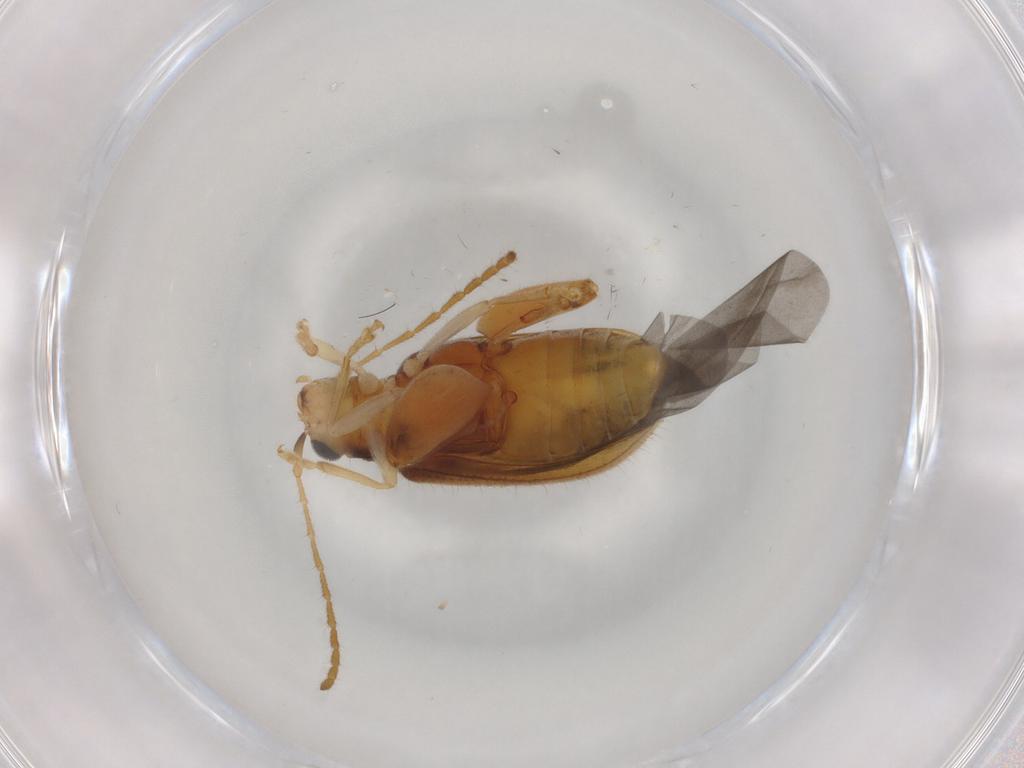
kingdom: Animalia
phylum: Arthropoda
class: Insecta
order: Coleoptera
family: Chrysomelidae
